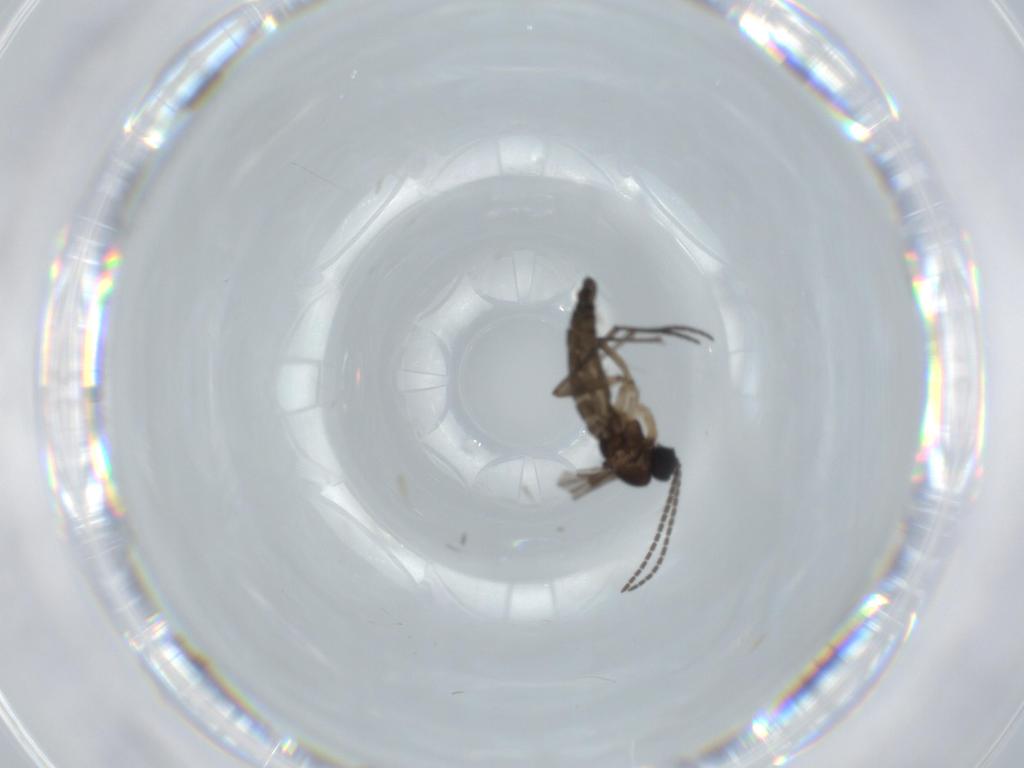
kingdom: Animalia
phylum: Arthropoda
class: Insecta
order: Diptera
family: Sciaridae
